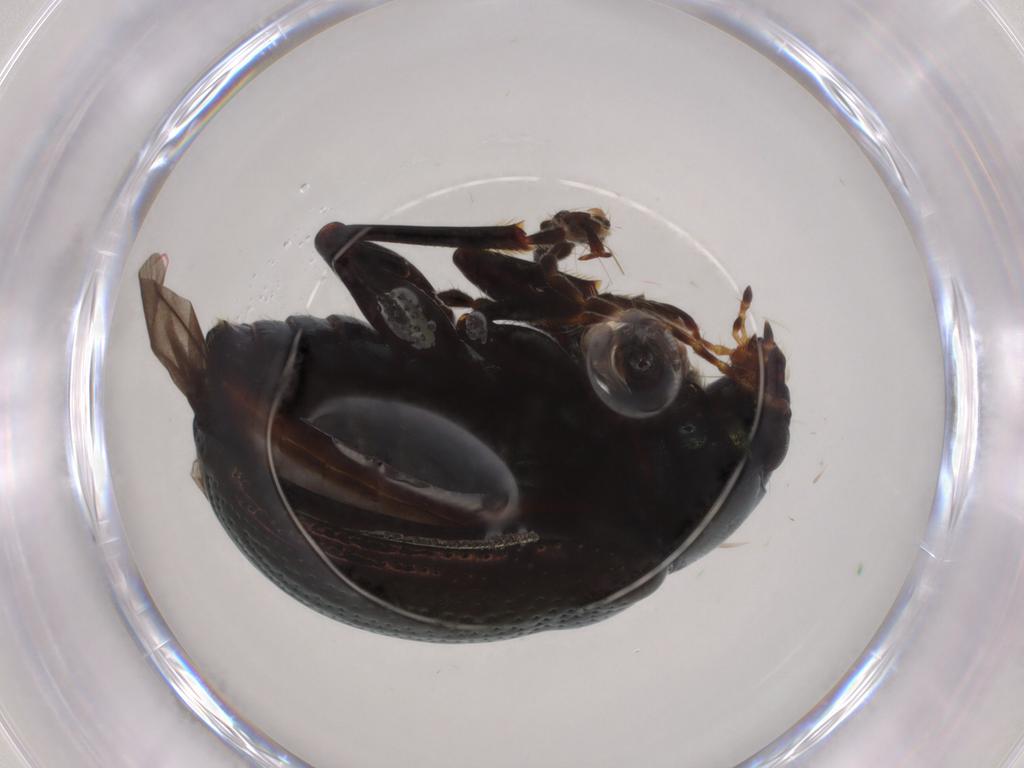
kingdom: Animalia
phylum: Arthropoda
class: Insecta
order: Coleoptera
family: Chrysomelidae
